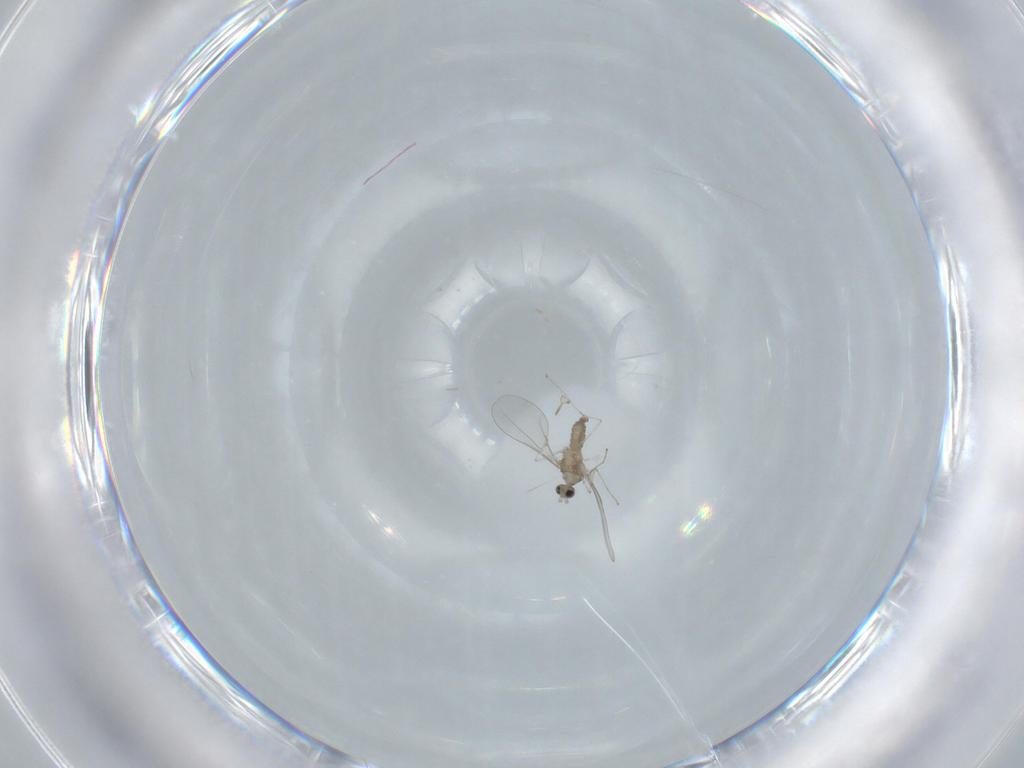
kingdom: Animalia
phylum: Arthropoda
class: Insecta
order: Diptera
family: Cecidomyiidae
